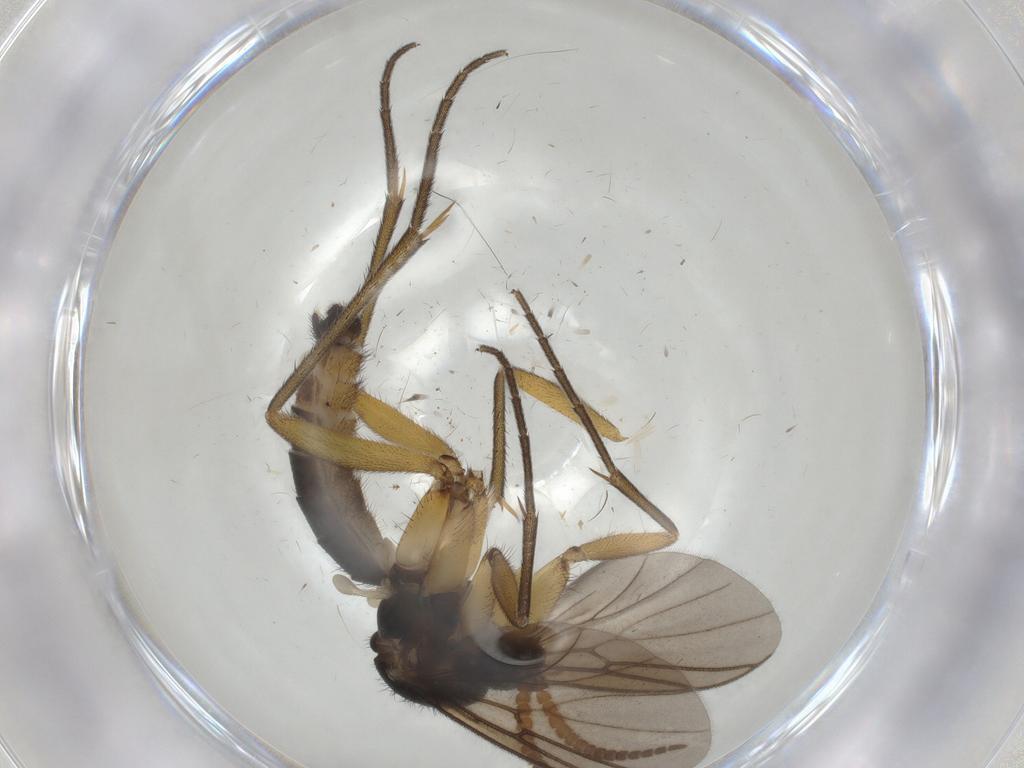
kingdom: Animalia
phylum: Arthropoda
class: Insecta
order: Diptera
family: Mycetophilidae
